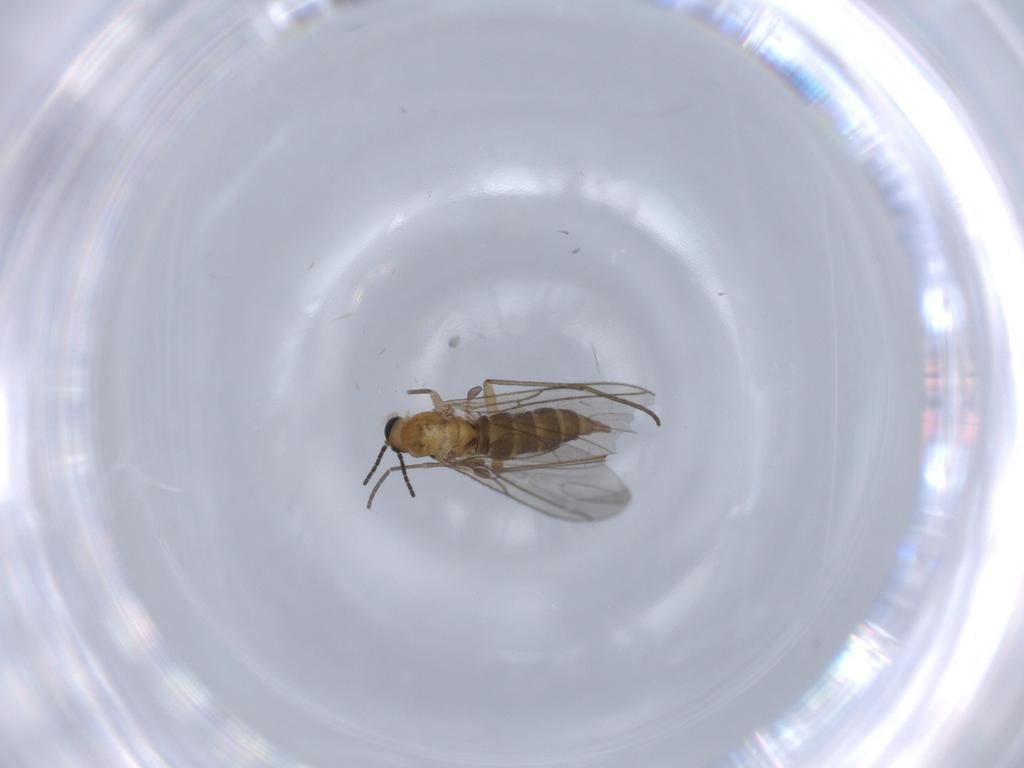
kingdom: Animalia
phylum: Arthropoda
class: Insecta
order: Diptera
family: Sciaridae
